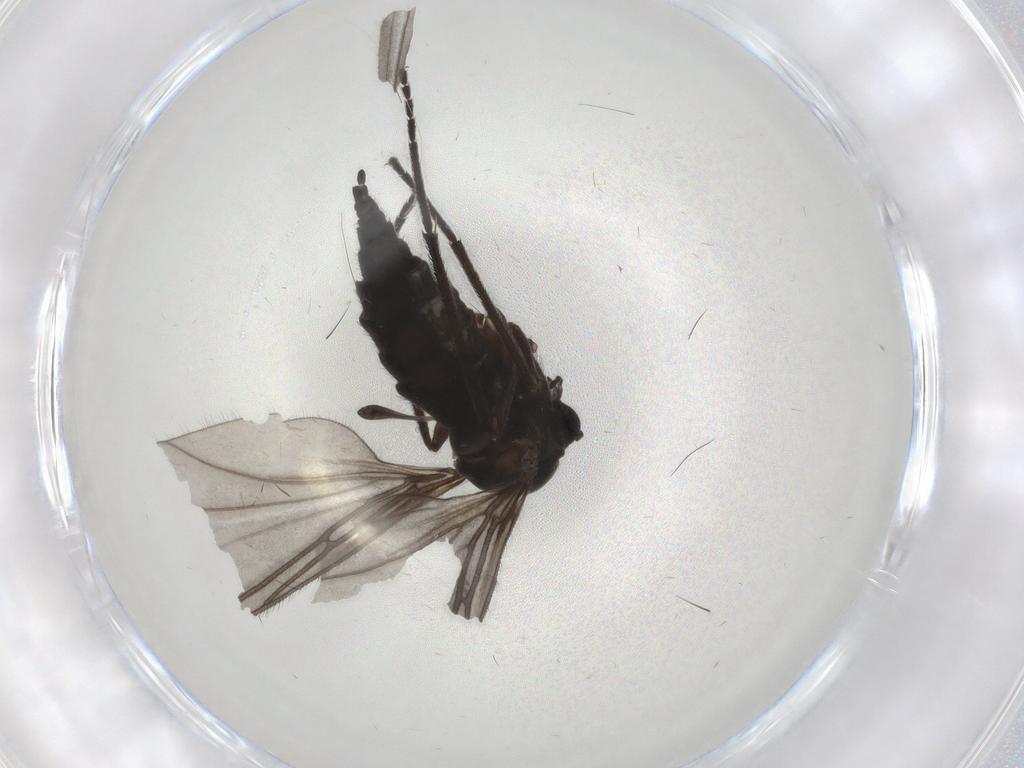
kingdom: Animalia
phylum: Arthropoda
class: Insecta
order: Diptera
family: Sciaridae
